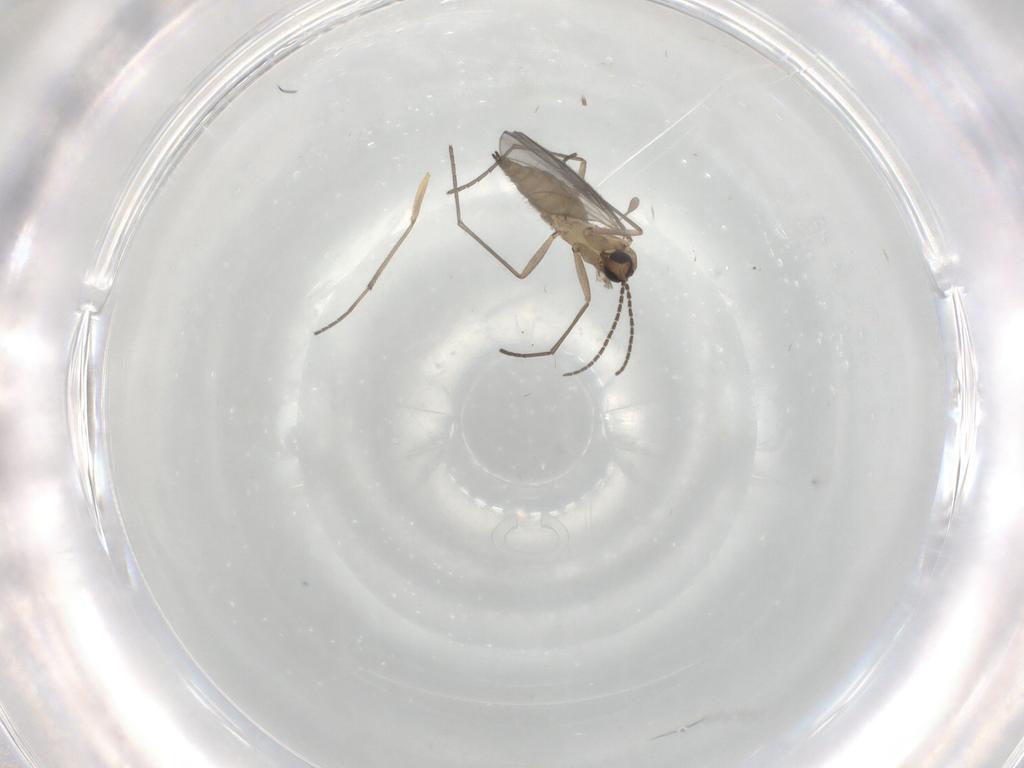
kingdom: Animalia
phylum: Arthropoda
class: Insecta
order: Diptera
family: Sciaridae
